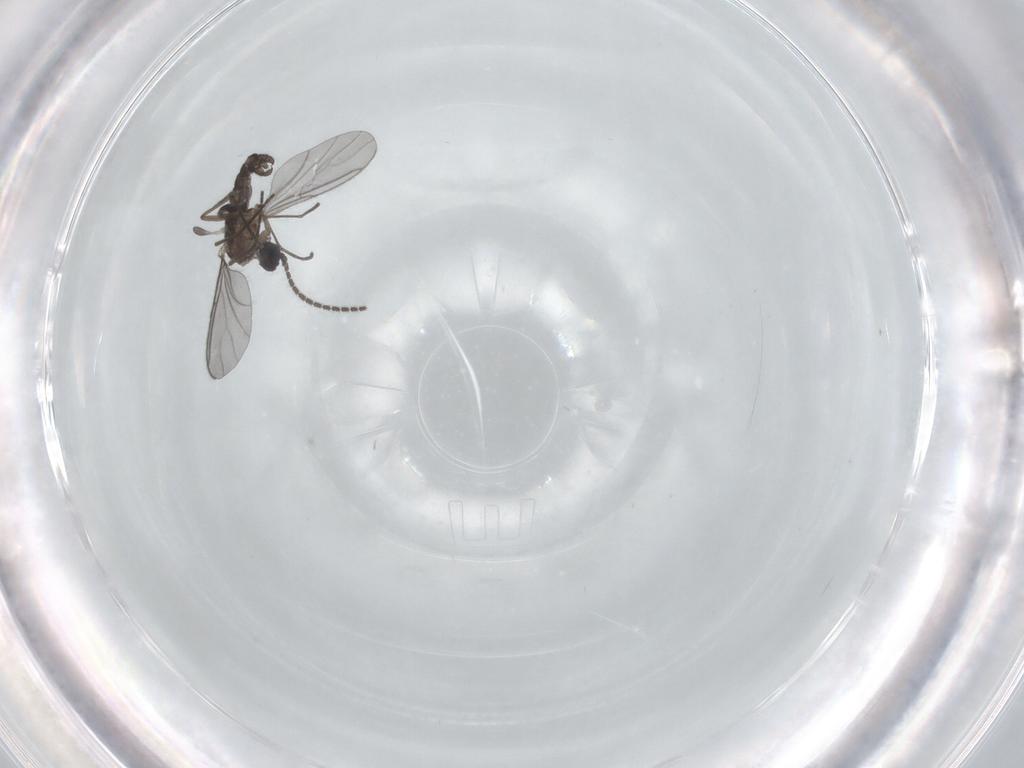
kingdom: Animalia
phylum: Arthropoda
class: Insecta
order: Diptera
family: Sciaridae
